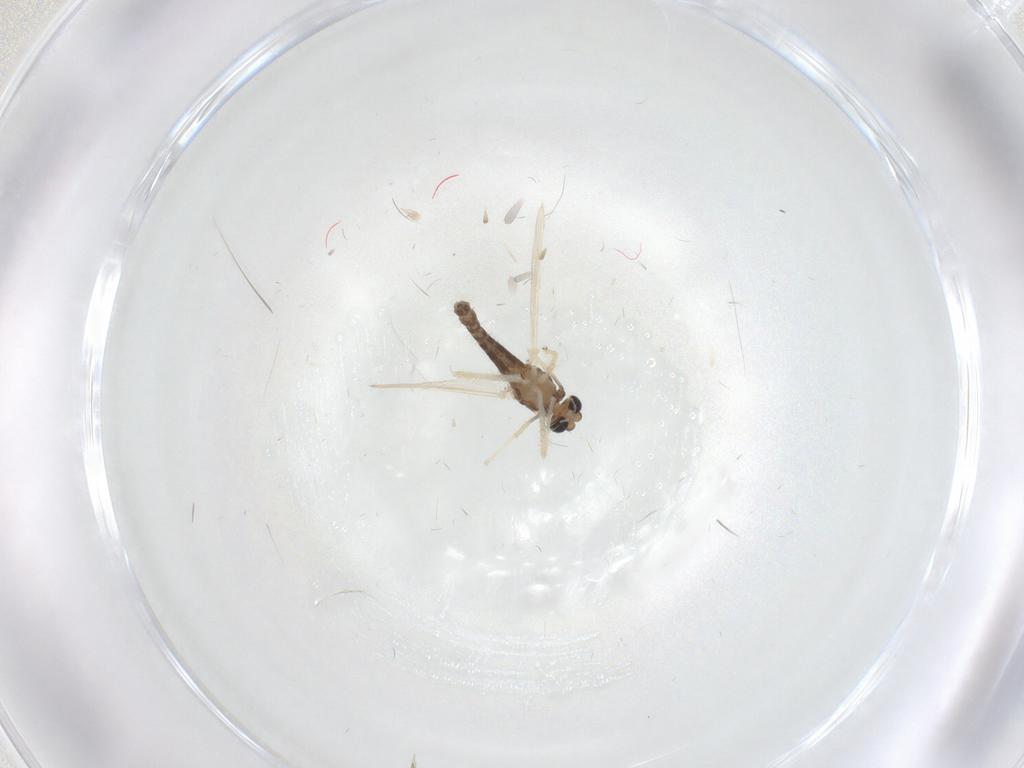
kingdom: Animalia
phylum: Arthropoda
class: Insecta
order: Diptera
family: Chironomidae
